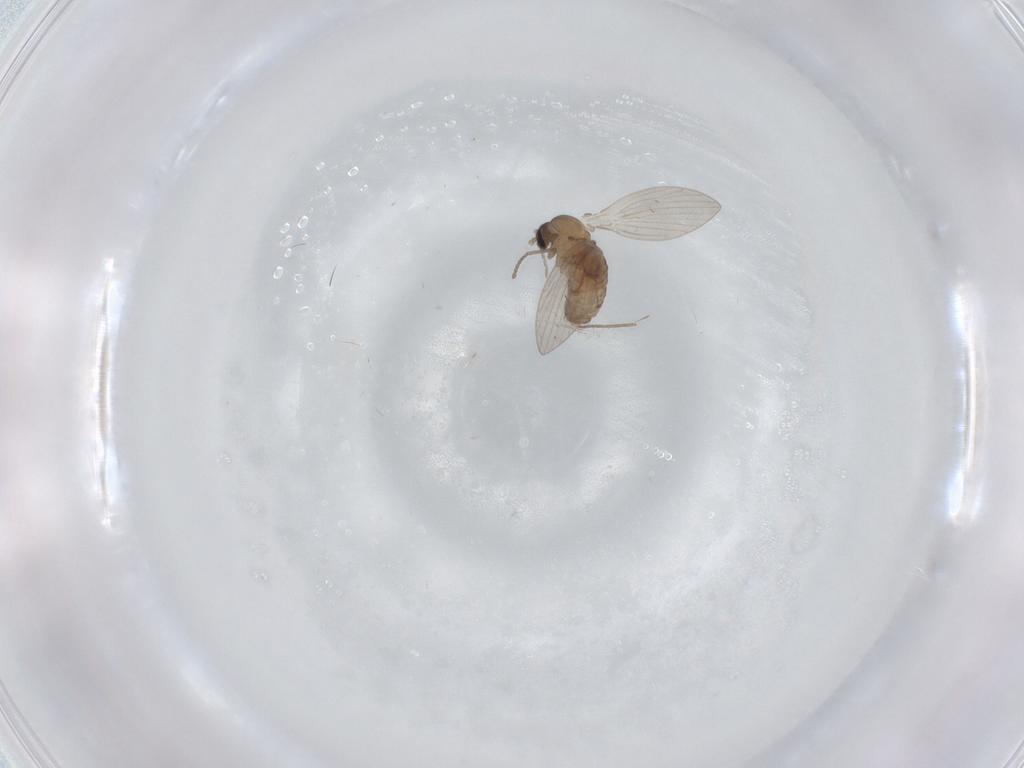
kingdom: Animalia
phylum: Arthropoda
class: Insecta
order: Diptera
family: Psychodidae
